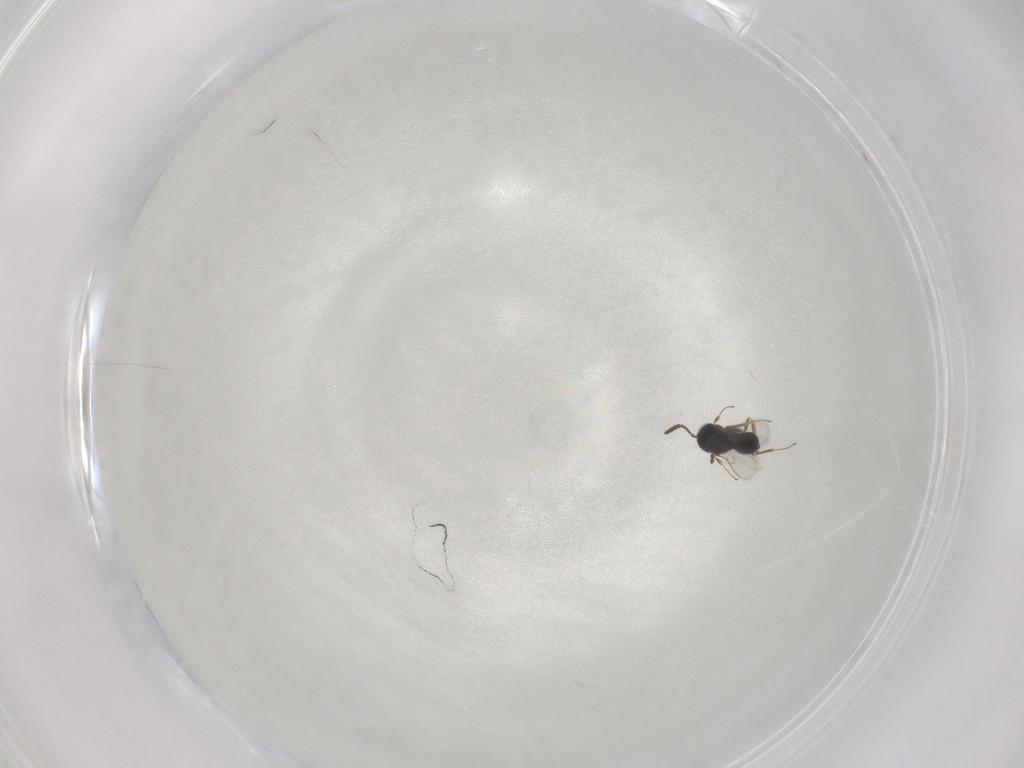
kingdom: Animalia
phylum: Arthropoda
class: Insecta
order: Hymenoptera
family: Scelionidae
